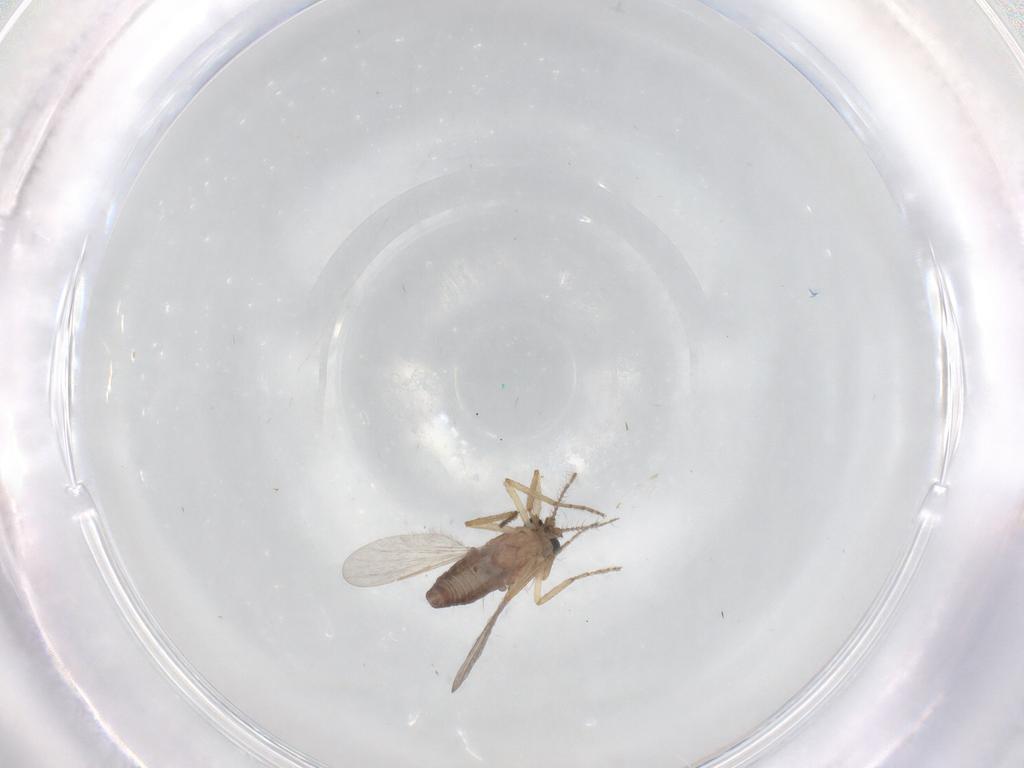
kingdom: Animalia
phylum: Arthropoda
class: Insecta
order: Diptera
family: Ceratopogonidae
